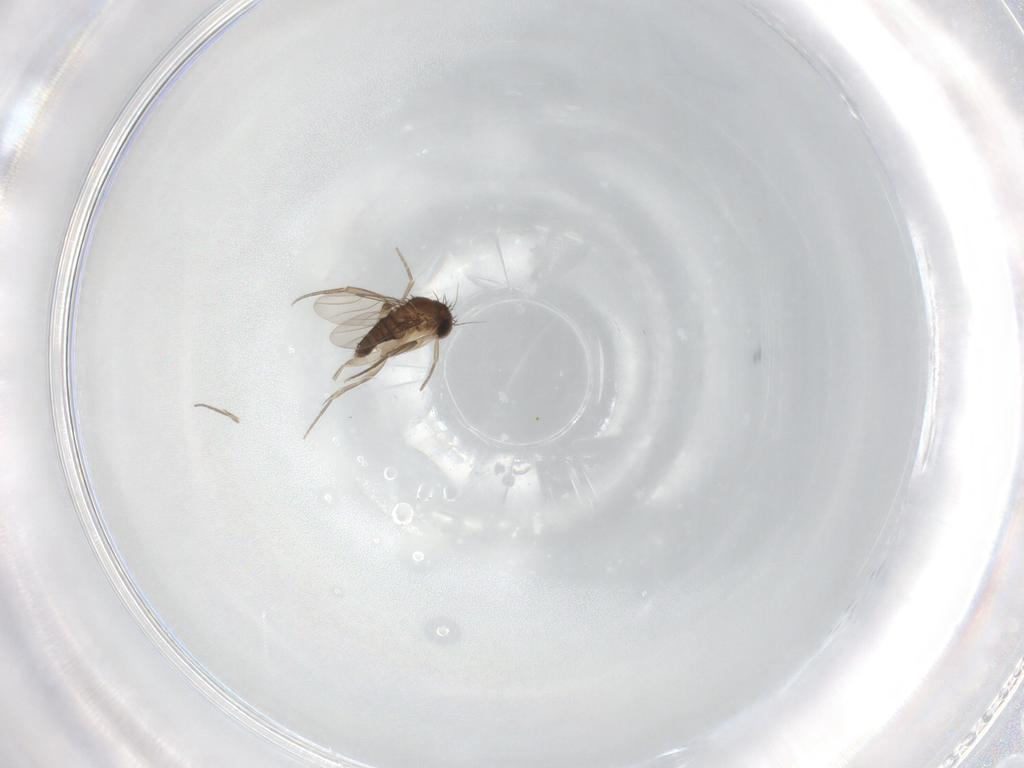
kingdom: Animalia
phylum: Arthropoda
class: Insecta
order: Diptera
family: Phoridae
